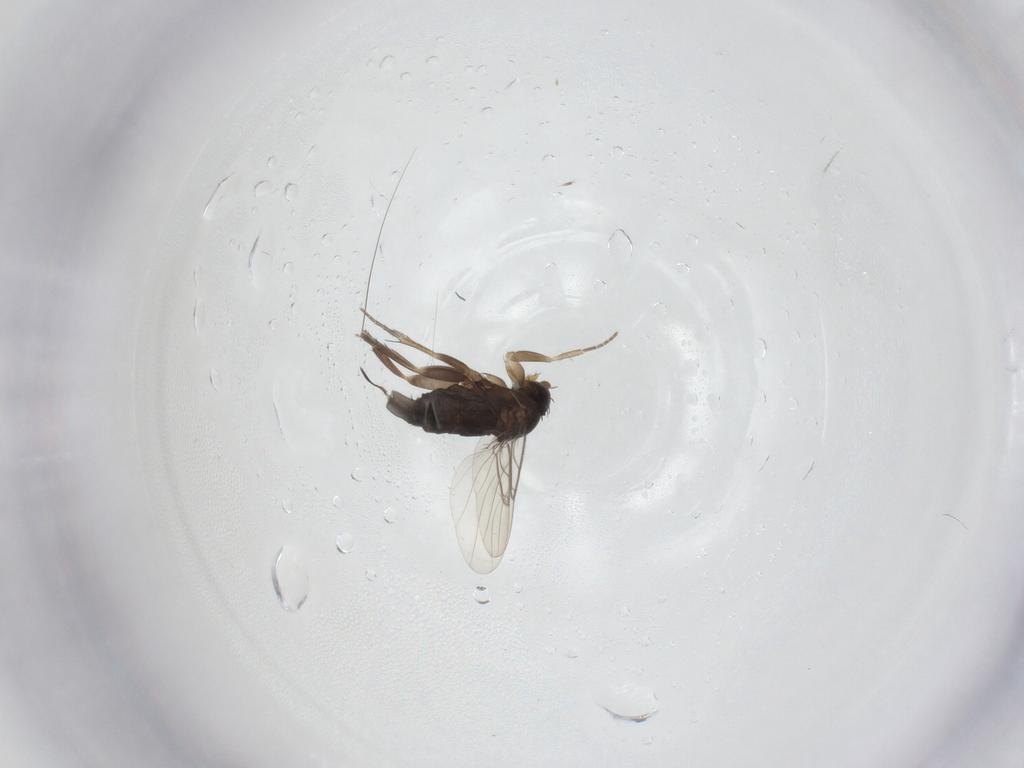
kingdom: Animalia
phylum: Arthropoda
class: Insecta
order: Diptera
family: Phoridae
